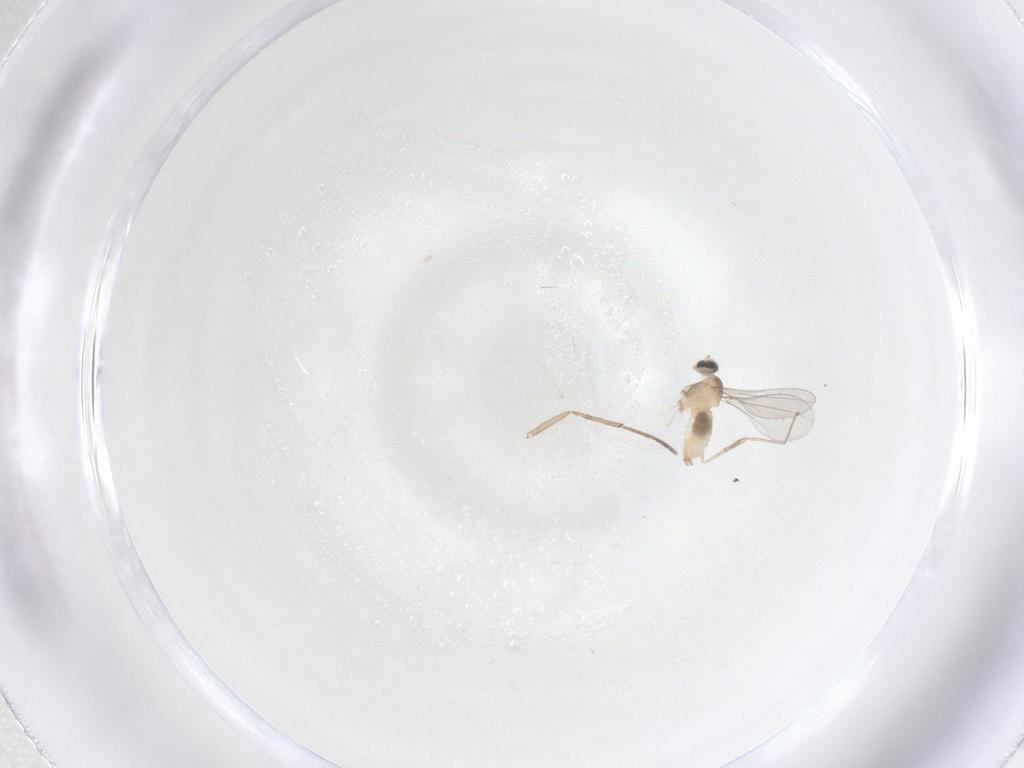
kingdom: Animalia
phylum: Arthropoda
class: Insecta
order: Diptera
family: Cecidomyiidae
